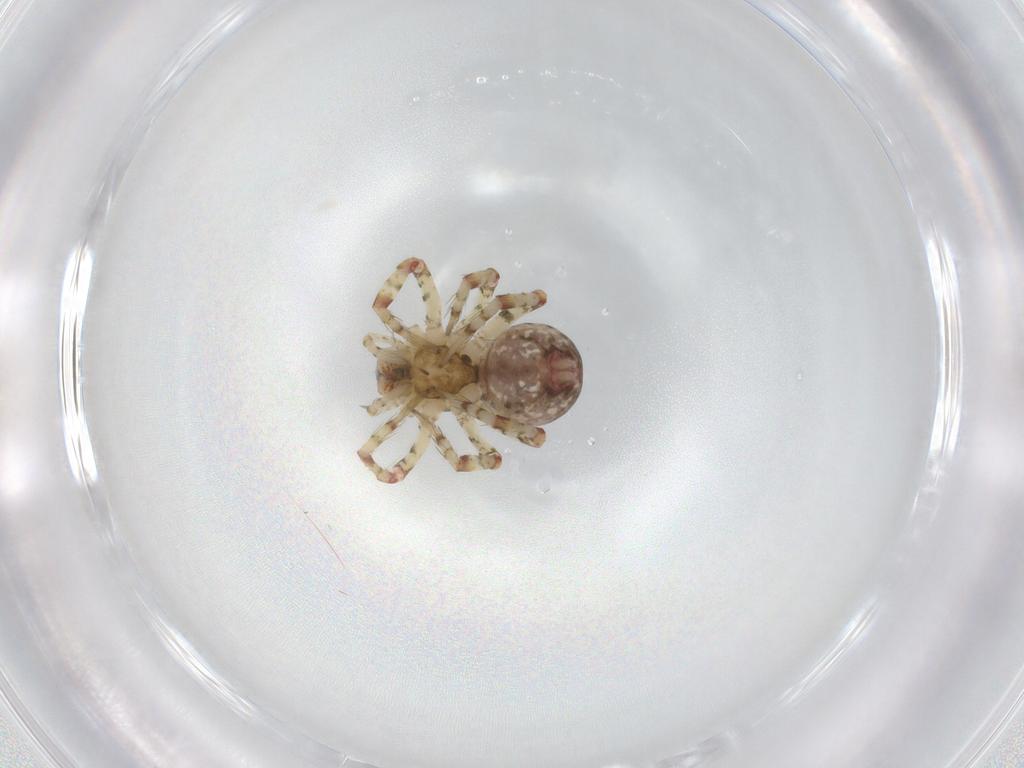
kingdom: Animalia
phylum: Arthropoda
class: Arachnida
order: Araneae
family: Theridiidae
